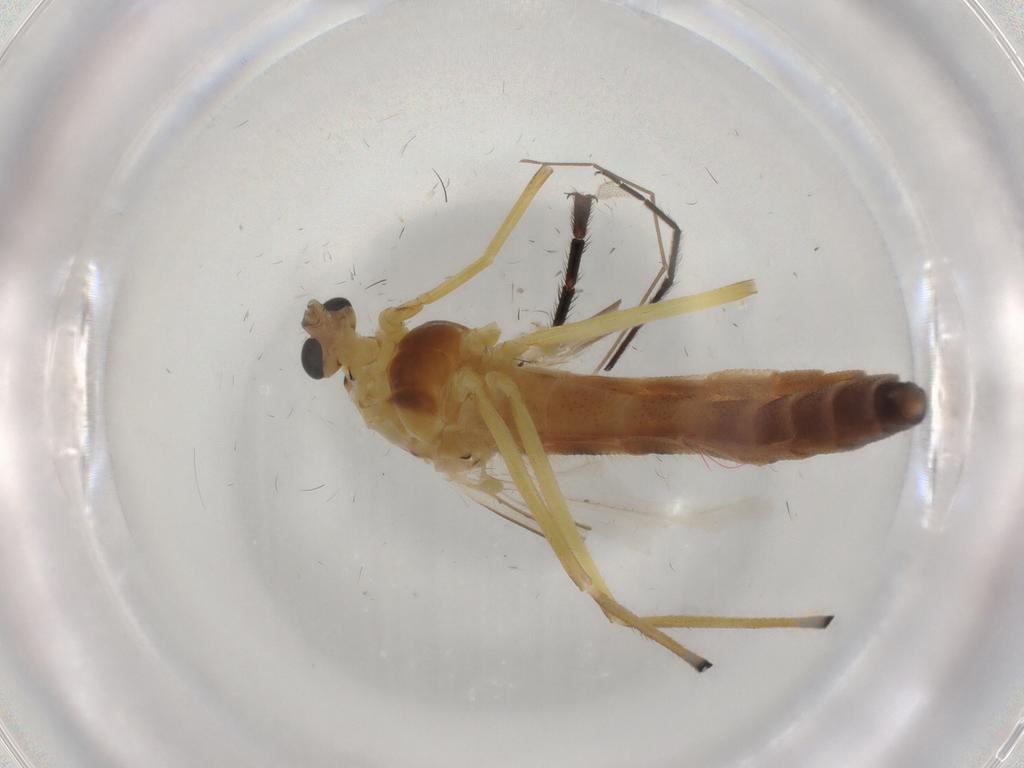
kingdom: Animalia
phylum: Arthropoda
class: Insecta
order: Diptera
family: Chironomidae
